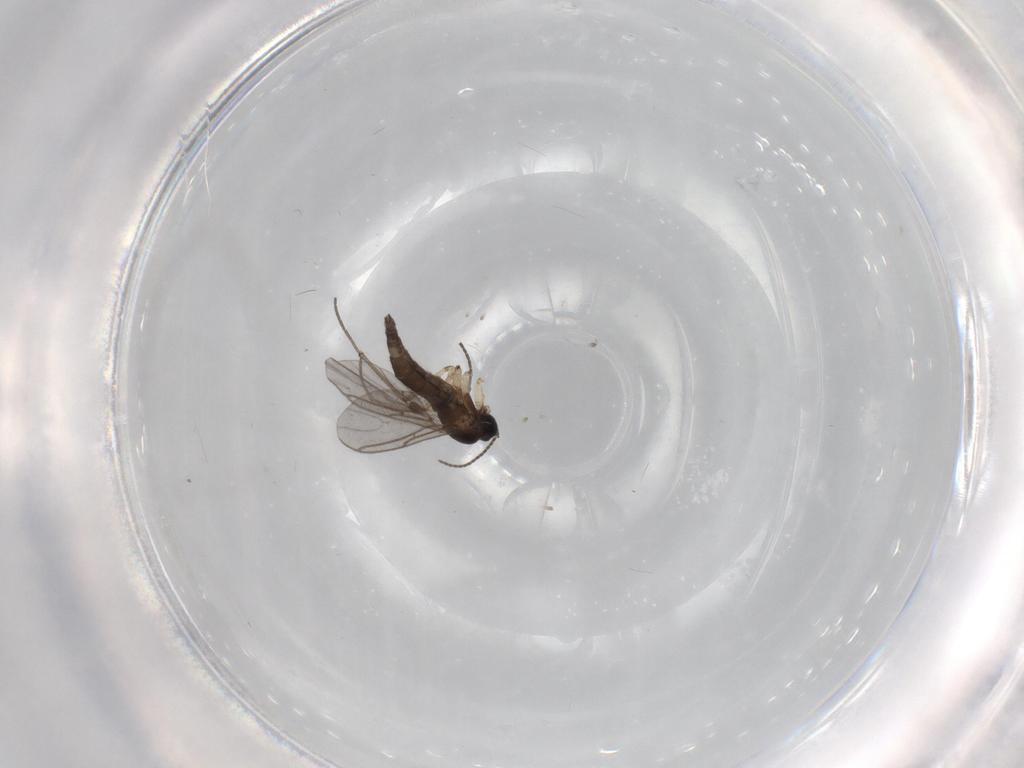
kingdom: Animalia
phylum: Arthropoda
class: Insecta
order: Diptera
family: Sciaridae
